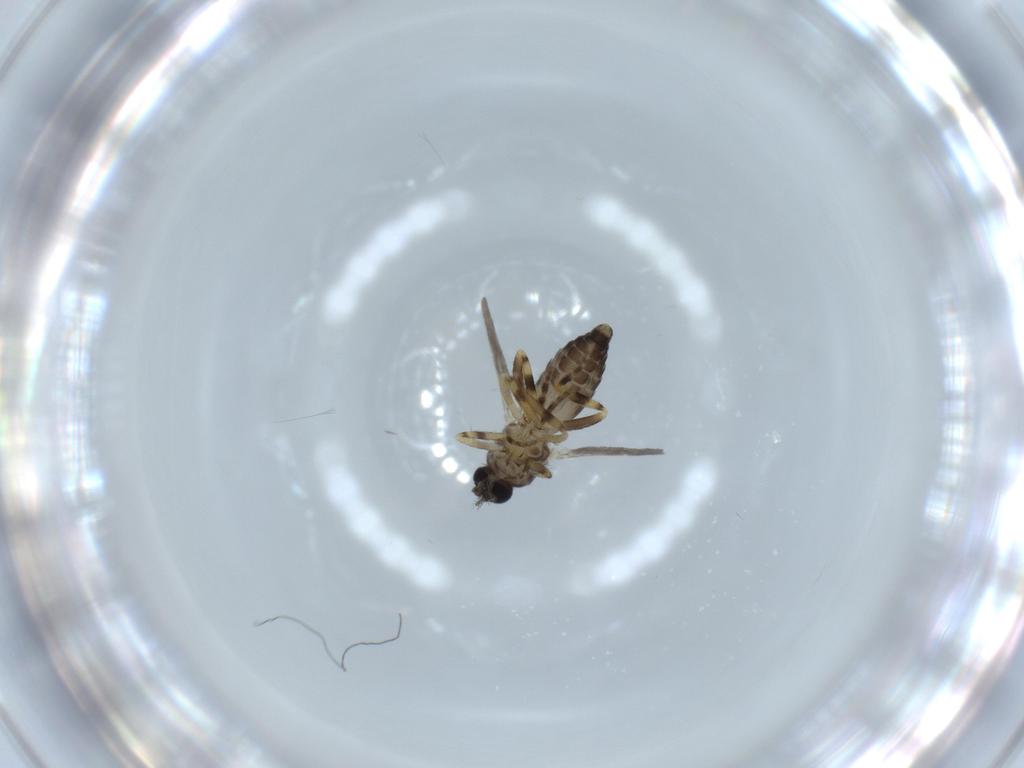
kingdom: Animalia
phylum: Arthropoda
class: Insecta
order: Diptera
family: Cecidomyiidae
